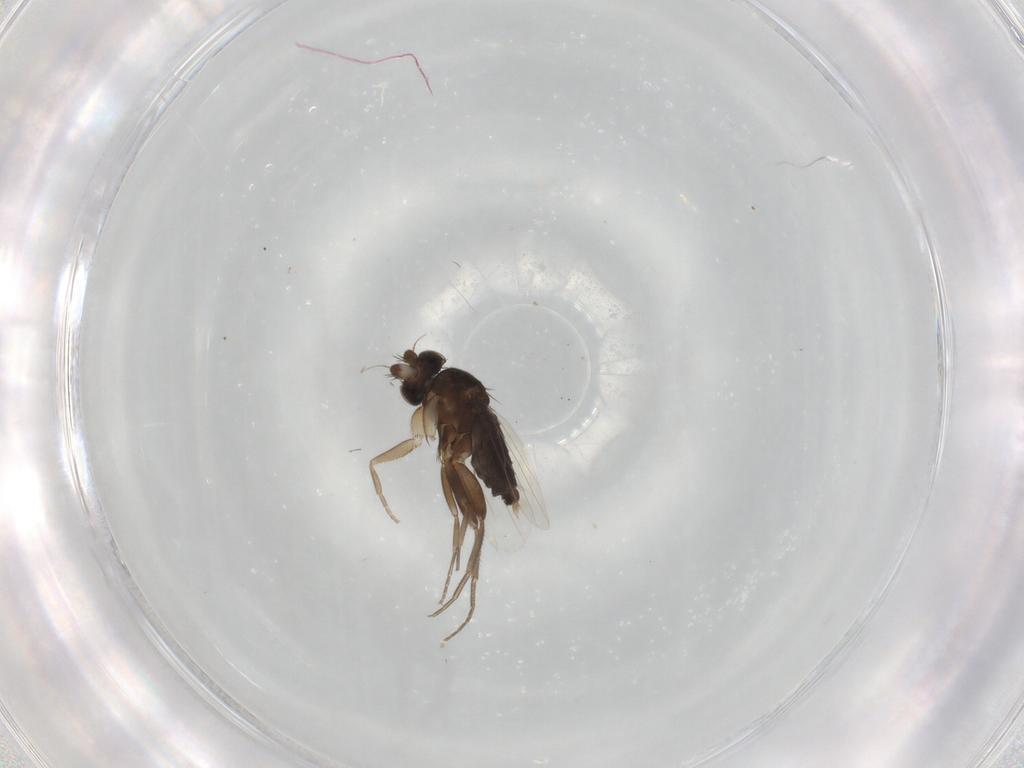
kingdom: Animalia
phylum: Arthropoda
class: Insecta
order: Diptera
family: Phoridae
